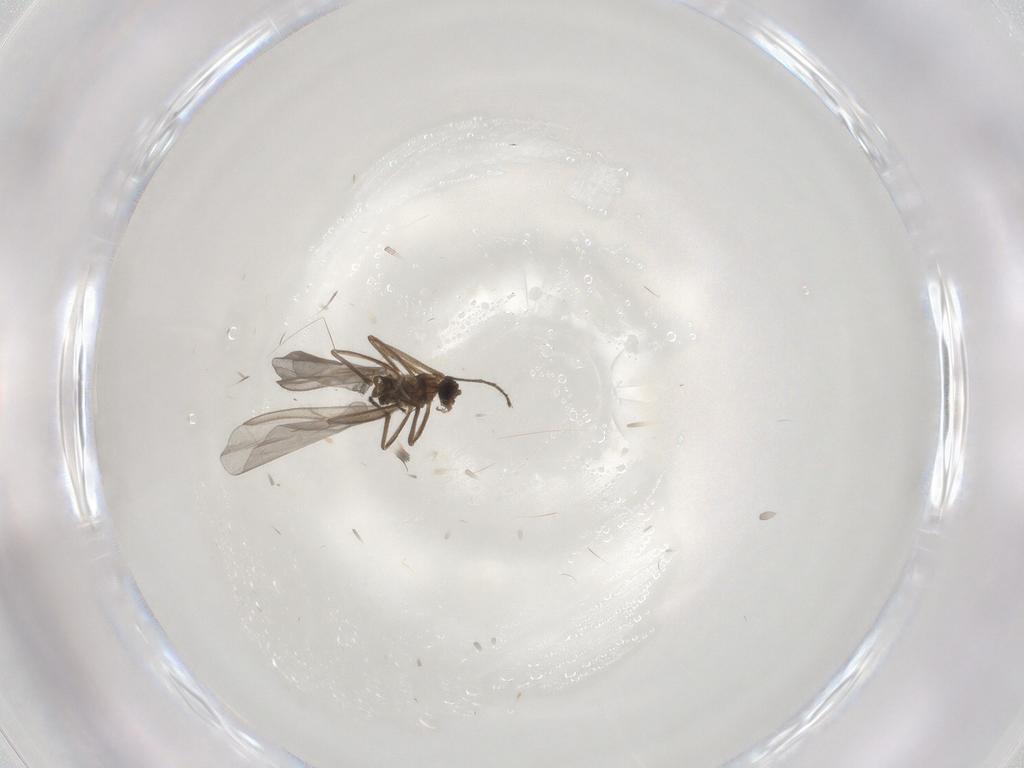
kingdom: Animalia
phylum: Arthropoda
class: Insecta
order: Diptera
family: Cecidomyiidae
